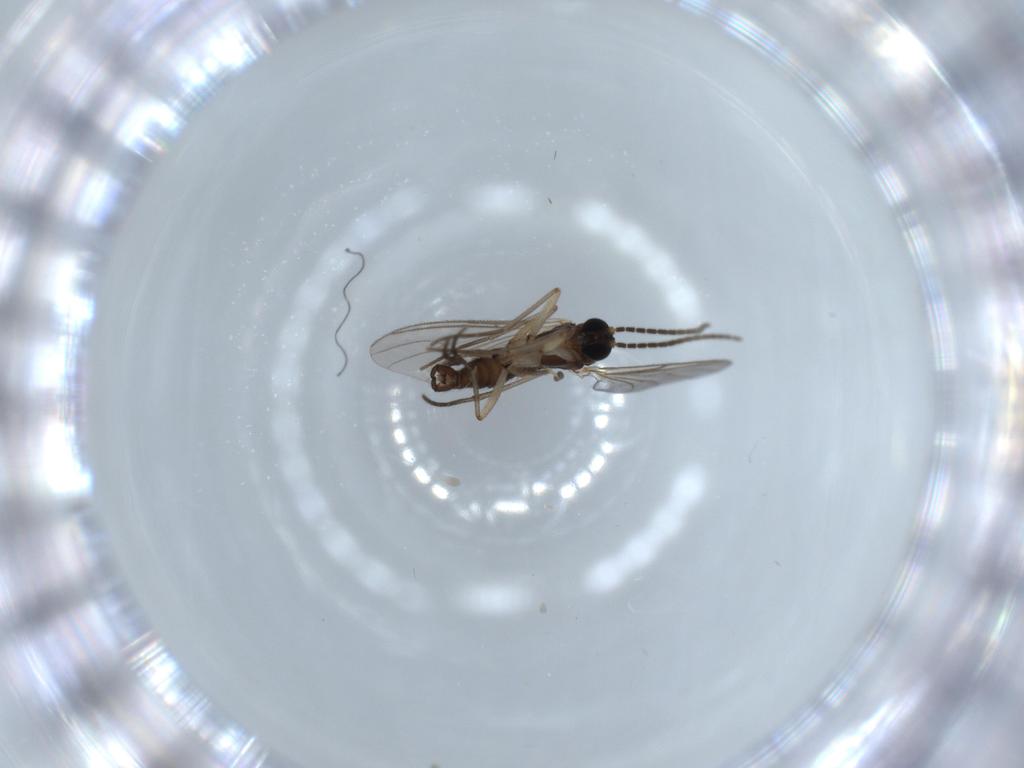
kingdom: Animalia
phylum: Arthropoda
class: Insecta
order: Diptera
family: Sciaridae
